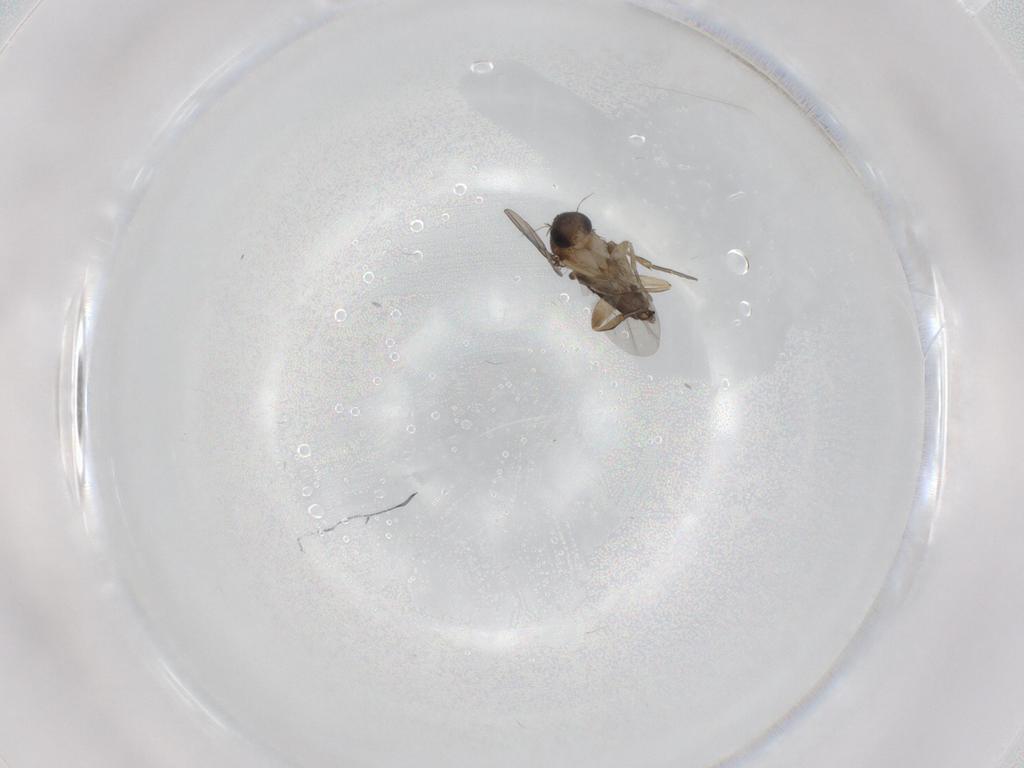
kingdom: Animalia
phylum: Arthropoda
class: Insecta
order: Diptera
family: Phoridae
